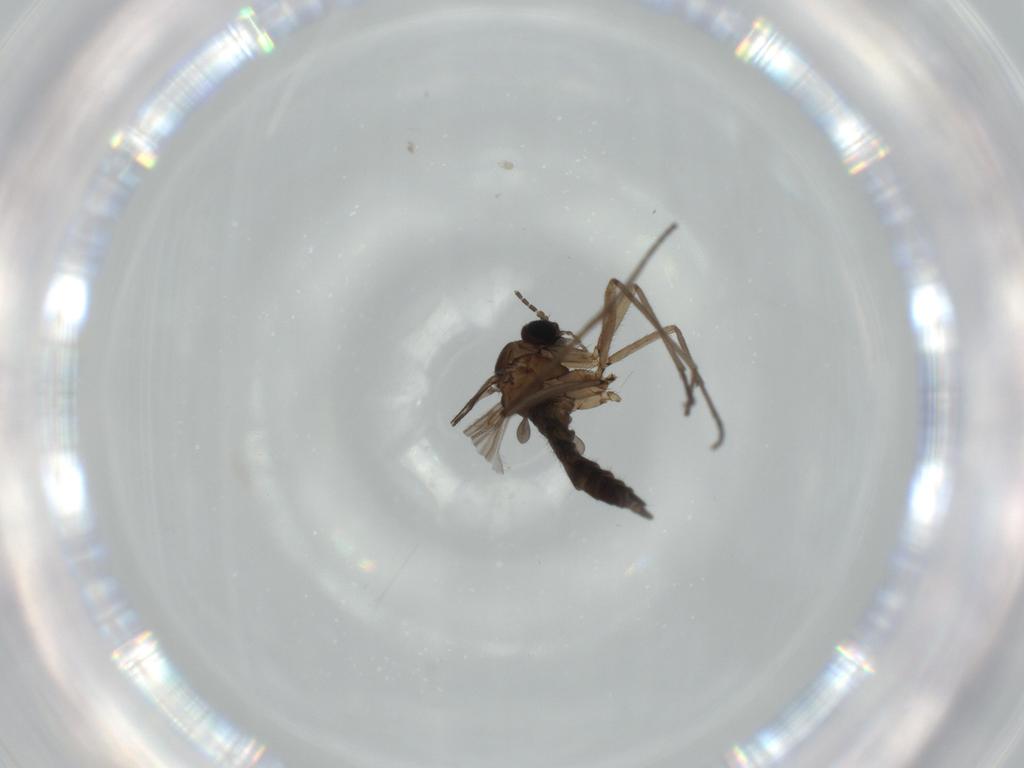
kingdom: Animalia
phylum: Arthropoda
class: Insecta
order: Diptera
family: Sciaridae
